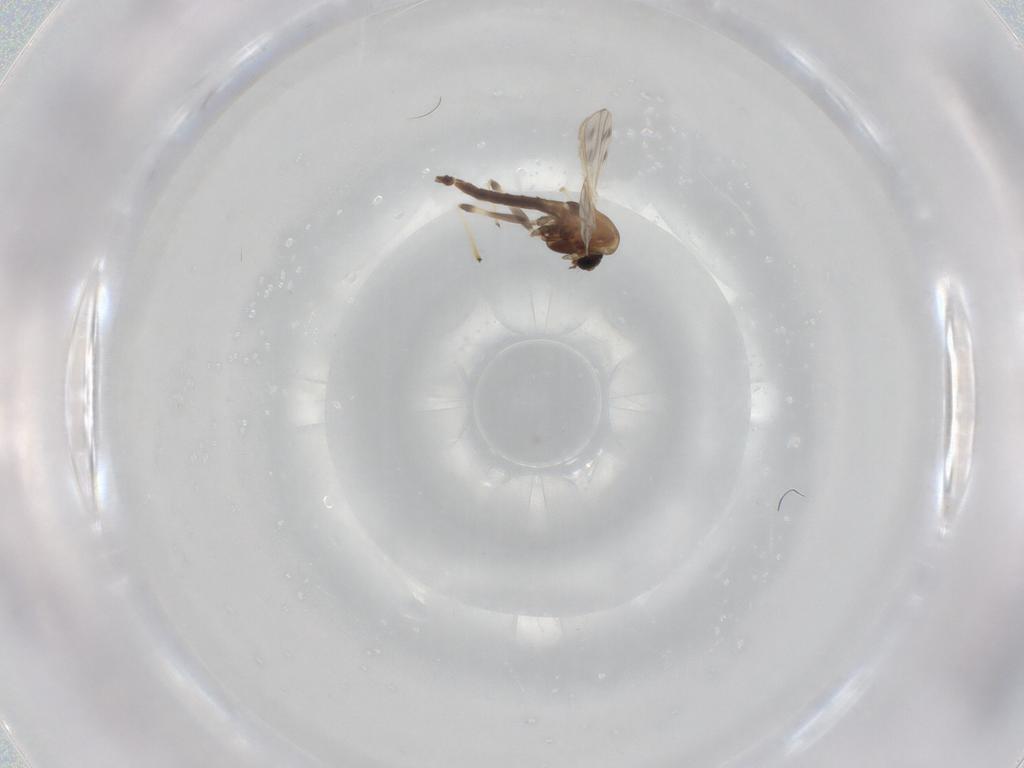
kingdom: Animalia
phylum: Arthropoda
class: Insecta
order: Diptera
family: Chironomidae
